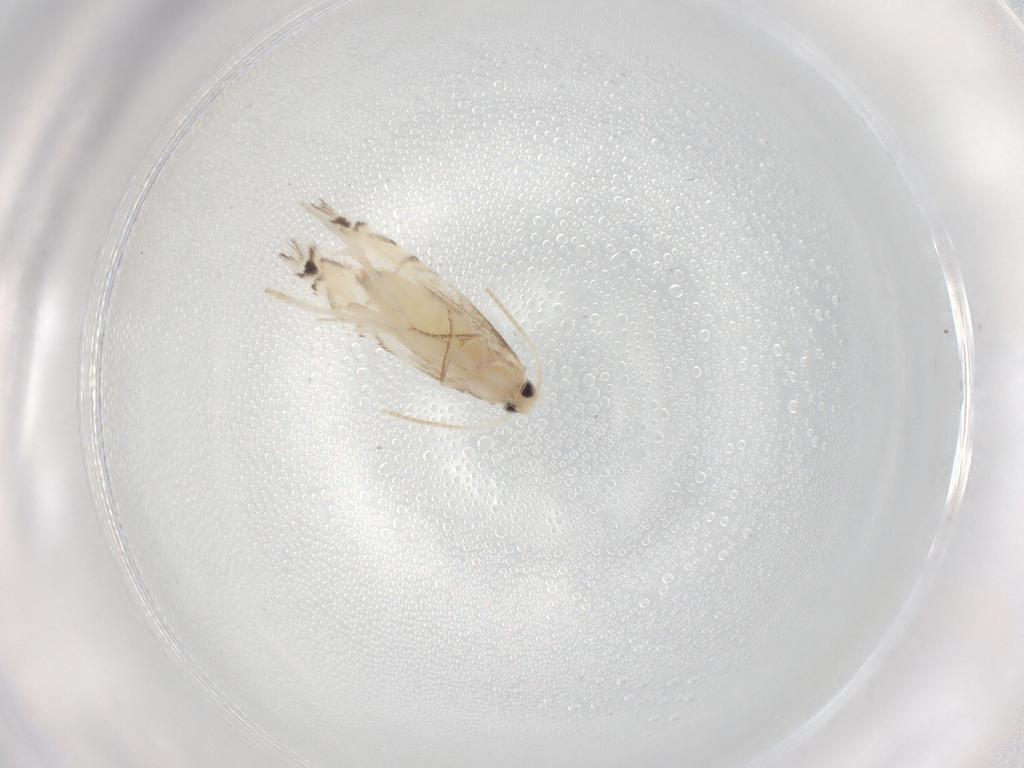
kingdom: Animalia
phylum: Arthropoda
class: Insecta
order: Lepidoptera
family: Gracillariidae
